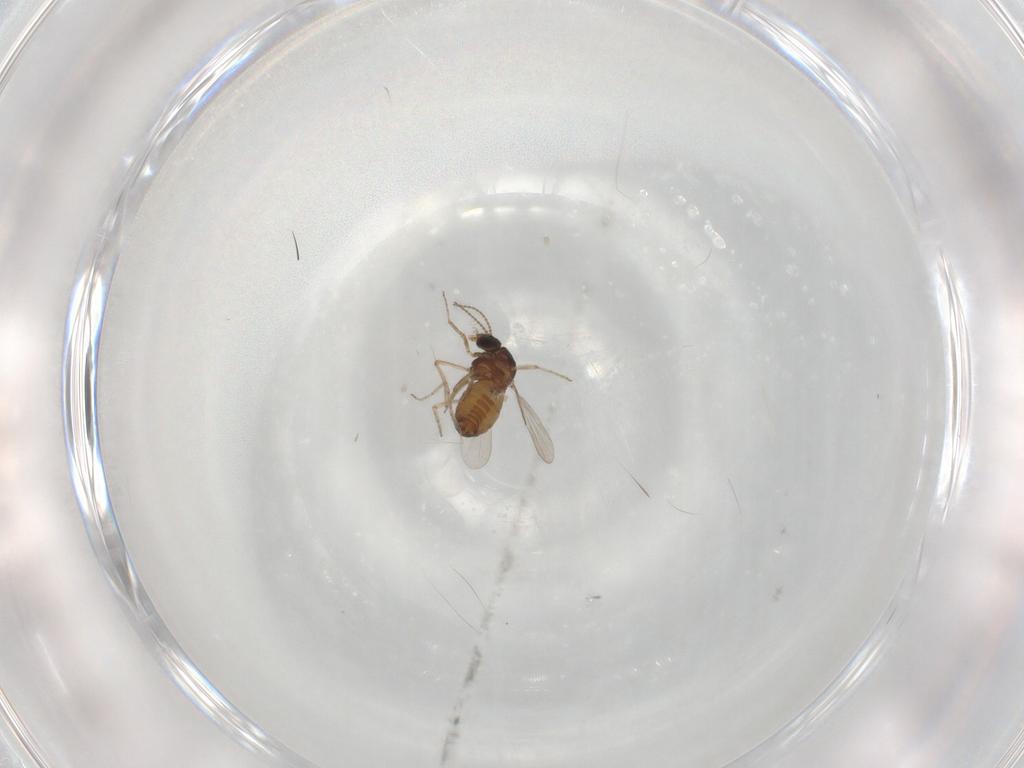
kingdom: Animalia
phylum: Arthropoda
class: Insecta
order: Diptera
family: Ceratopogonidae
